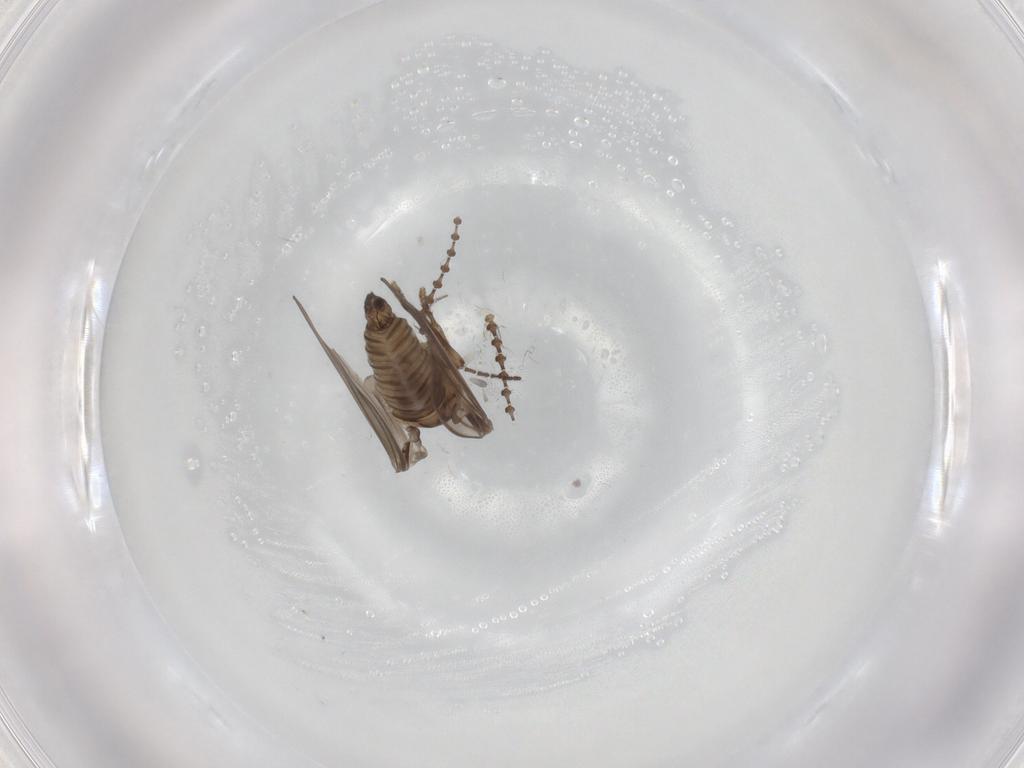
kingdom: Animalia
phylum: Arthropoda
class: Insecta
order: Diptera
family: Psychodidae
